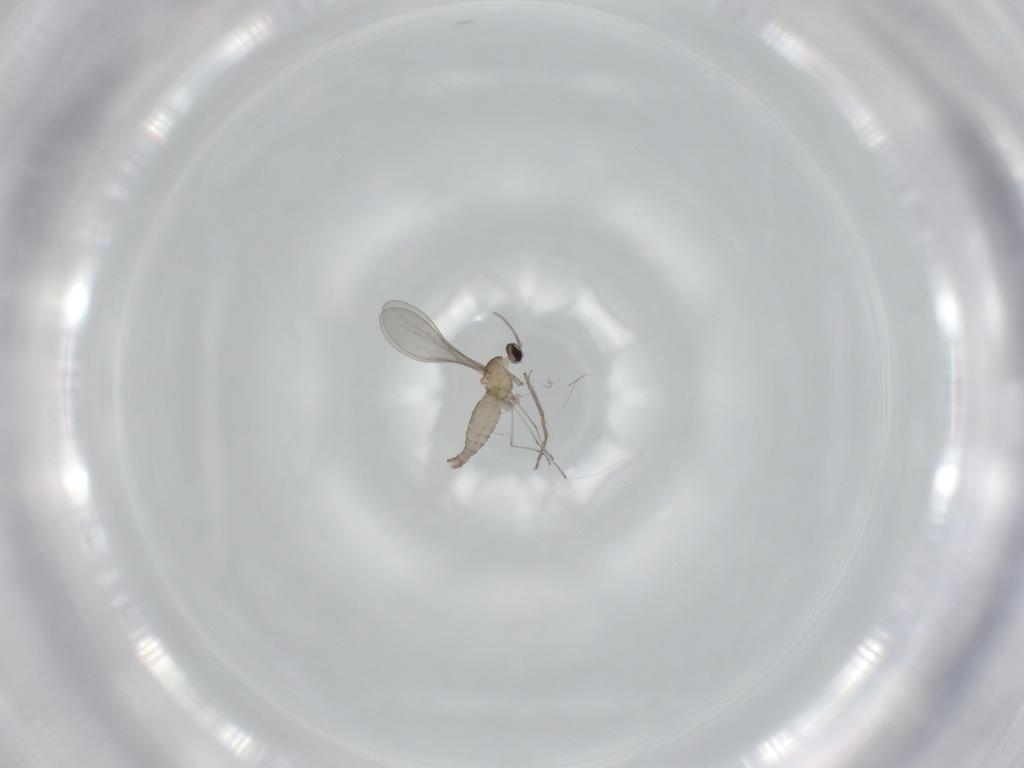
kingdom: Animalia
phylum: Arthropoda
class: Insecta
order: Diptera
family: Chironomidae
